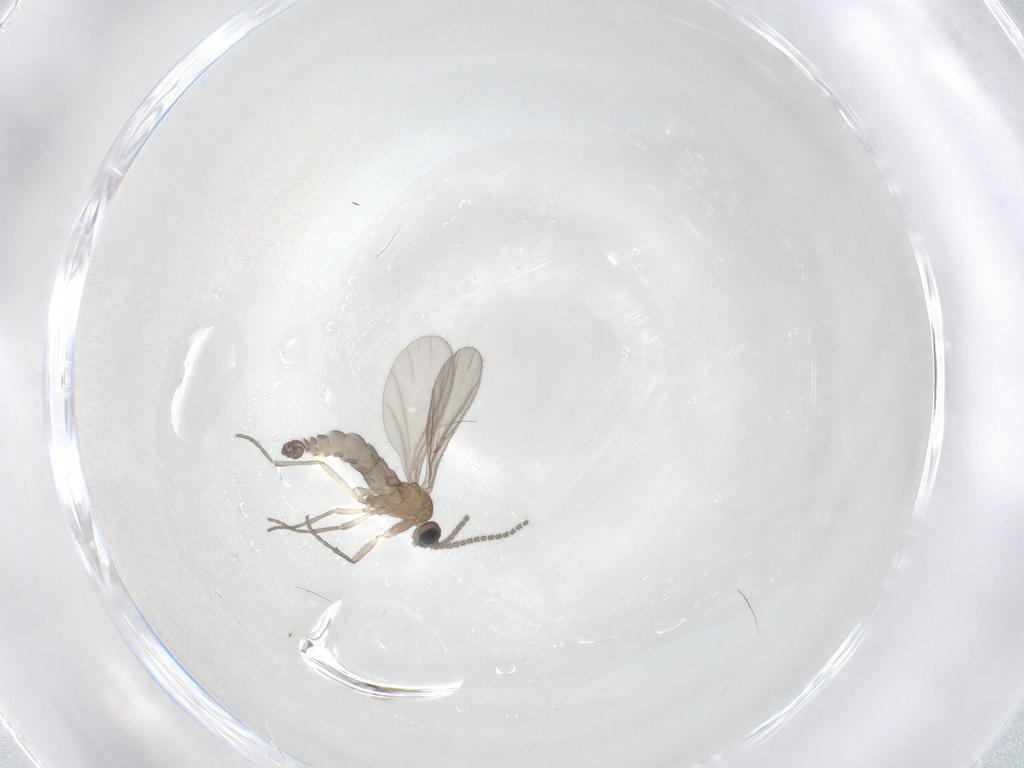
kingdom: Animalia
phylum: Arthropoda
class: Insecta
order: Diptera
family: Sciaridae
